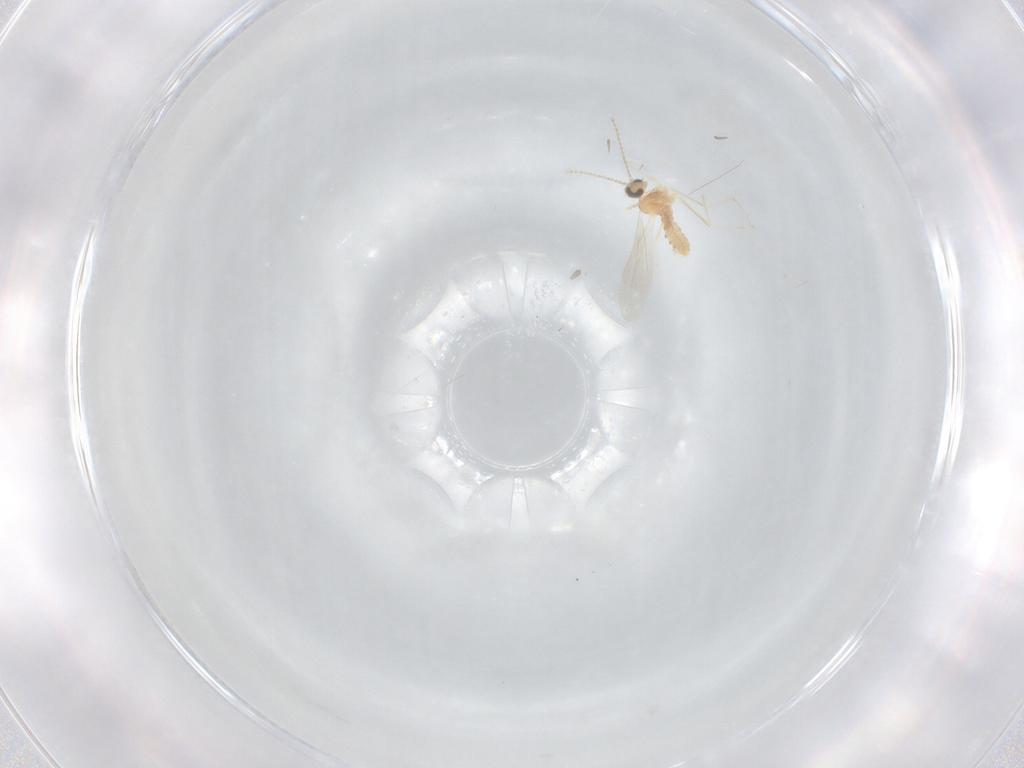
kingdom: Animalia
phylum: Arthropoda
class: Insecta
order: Diptera
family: Cecidomyiidae
